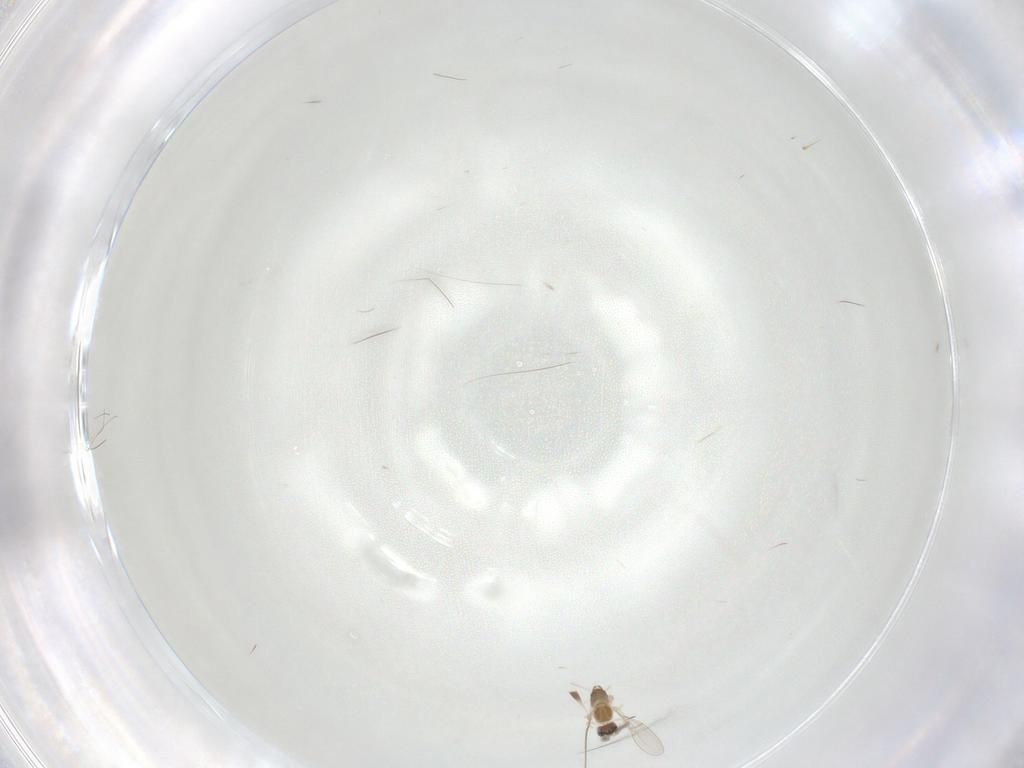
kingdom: Animalia
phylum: Arthropoda
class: Insecta
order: Diptera
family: Cecidomyiidae
